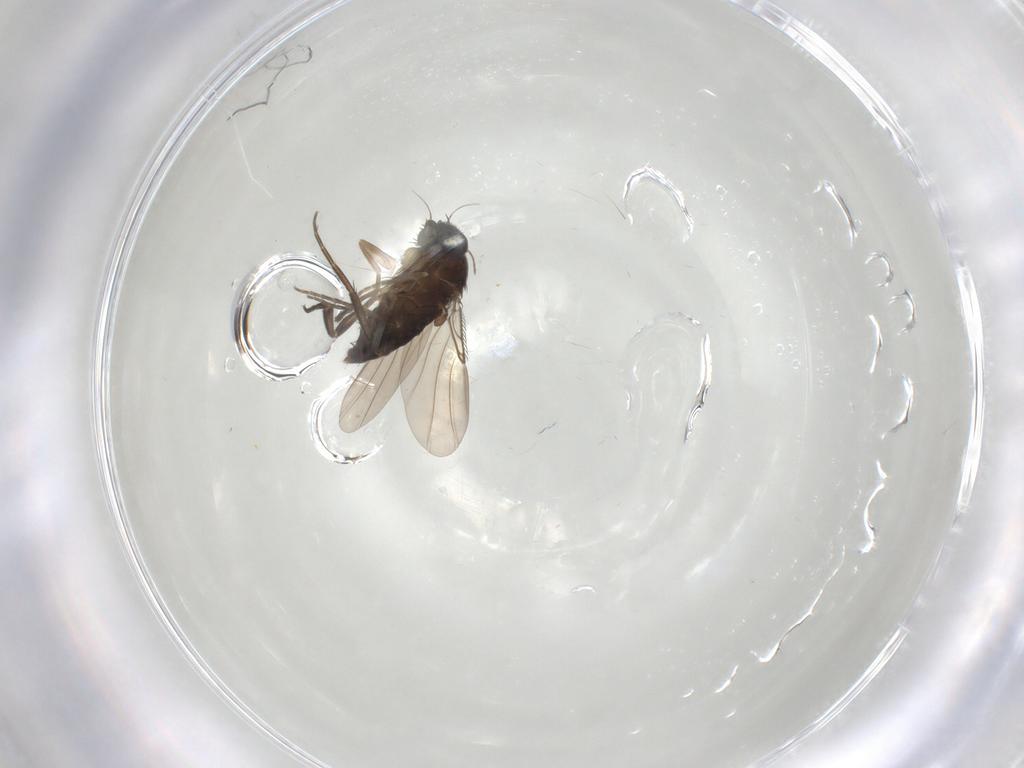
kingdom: Animalia
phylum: Arthropoda
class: Insecta
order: Diptera
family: Phoridae
